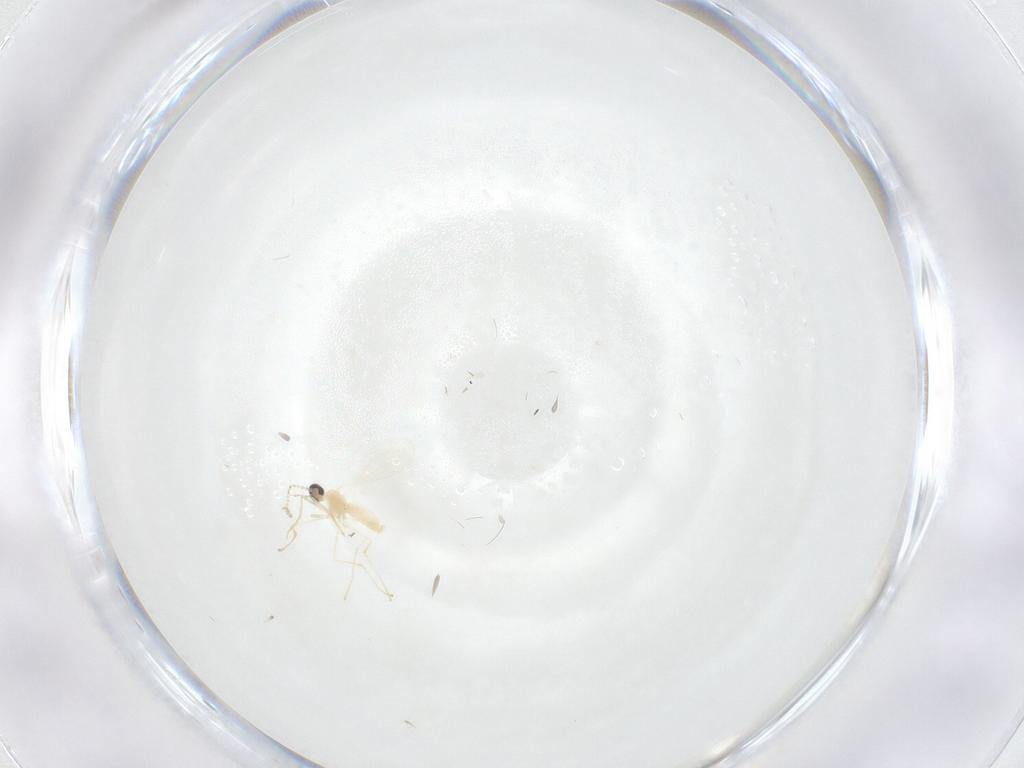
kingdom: Animalia
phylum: Arthropoda
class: Insecta
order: Diptera
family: Cecidomyiidae
